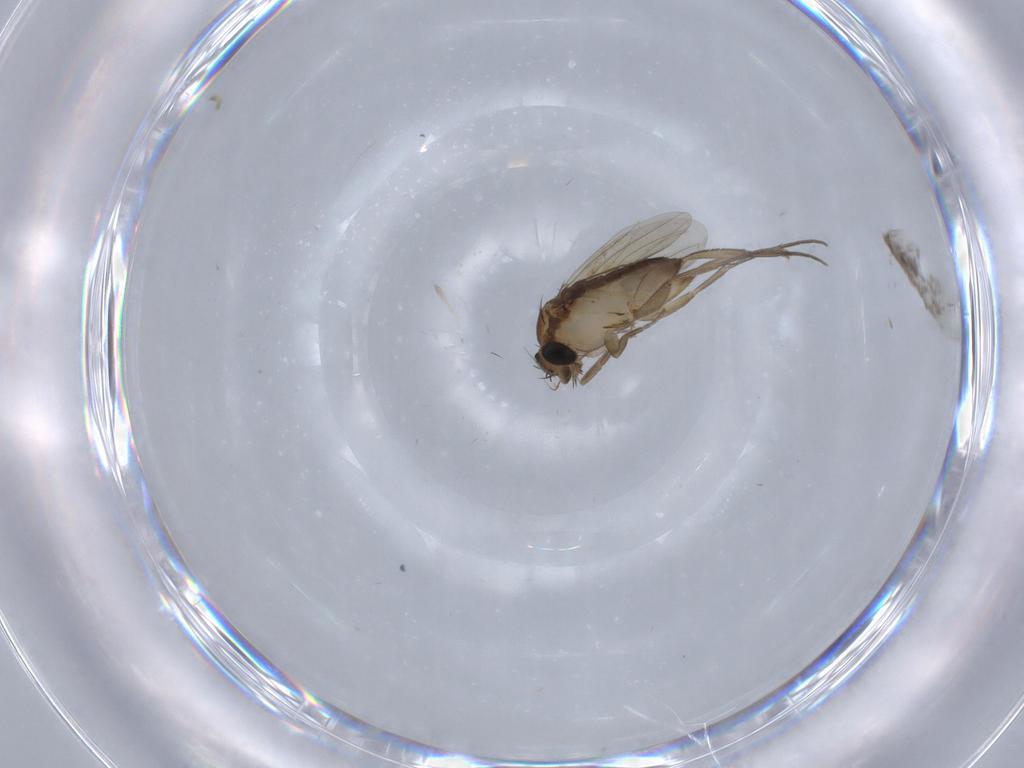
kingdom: Animalia
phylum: Arthropoda
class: Insecta
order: Diptera
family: Phoridae
